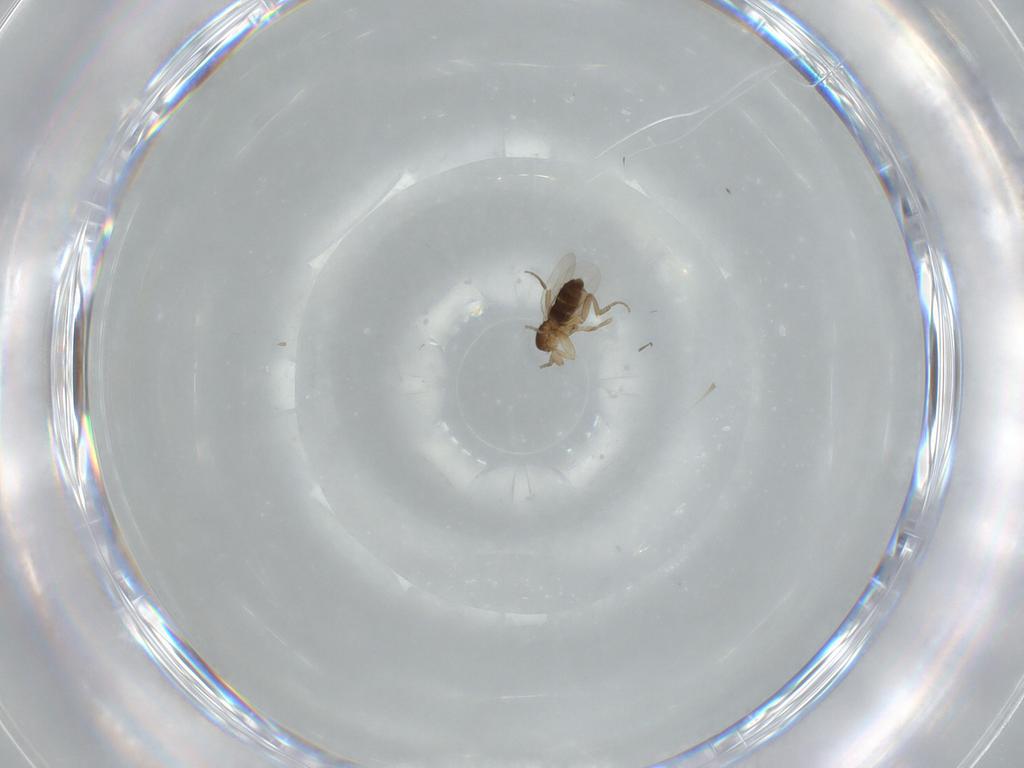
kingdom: Animalia
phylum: Arthropoda
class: Insecta
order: Diptera
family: Phoridae
